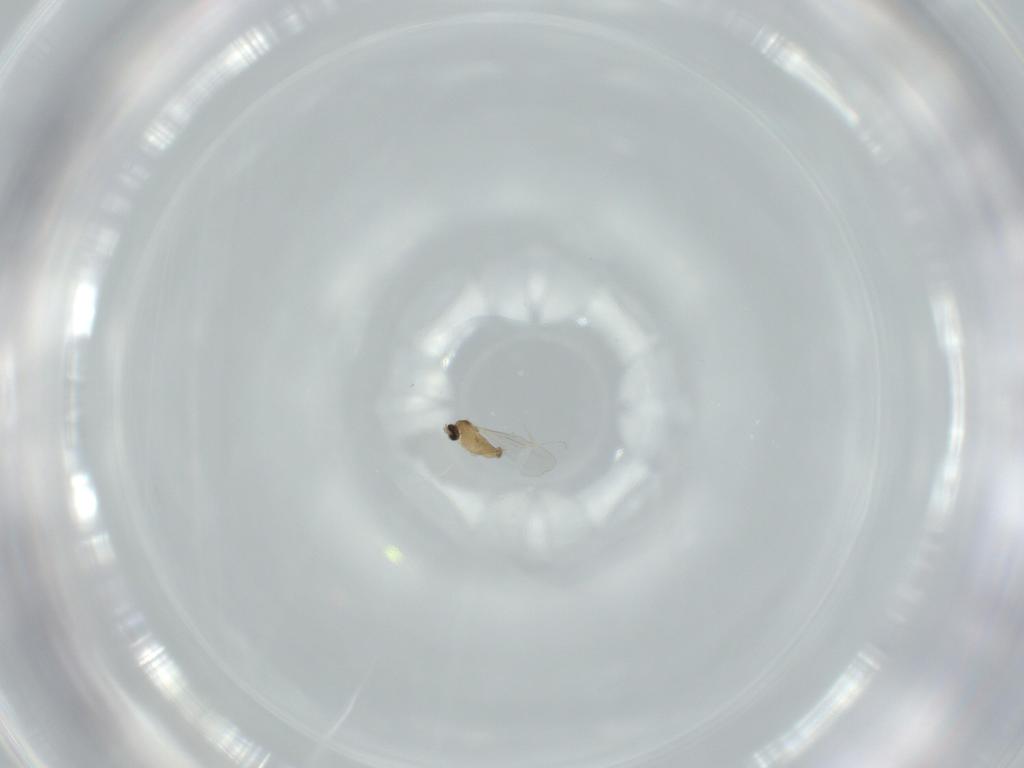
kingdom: Animalia
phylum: Arthropoda
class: Insecta
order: Diptera
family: Cecidomyiidae
